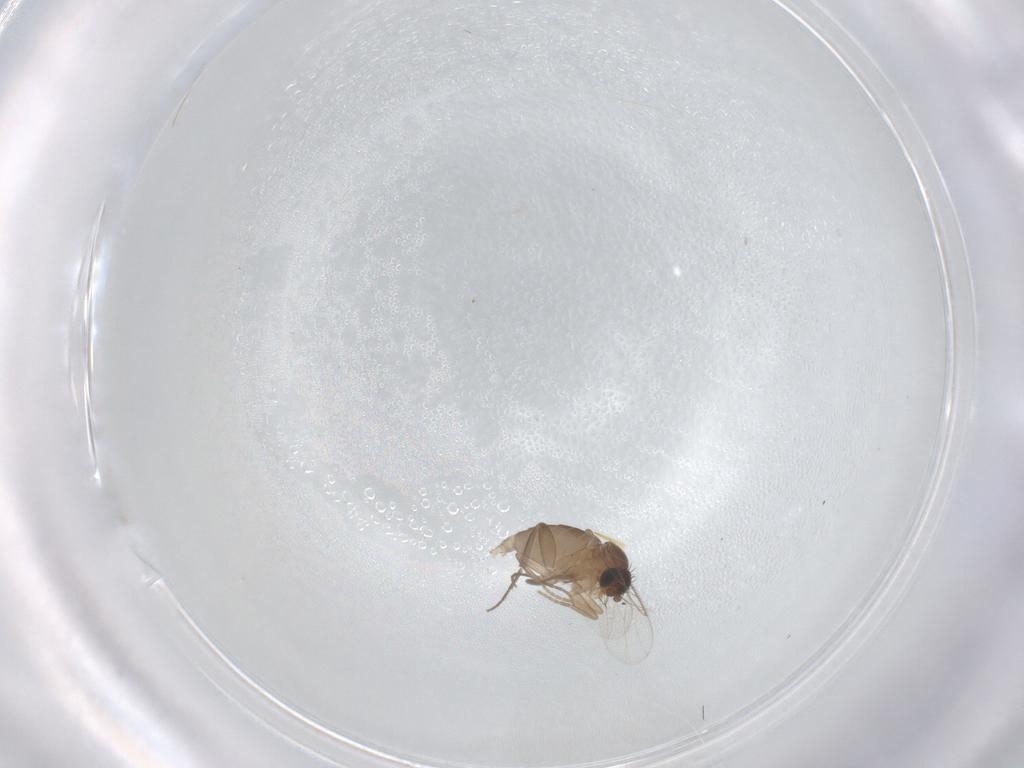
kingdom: Animalia
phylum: Arthropoda
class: Insecta
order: Diptera
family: Phoridae
